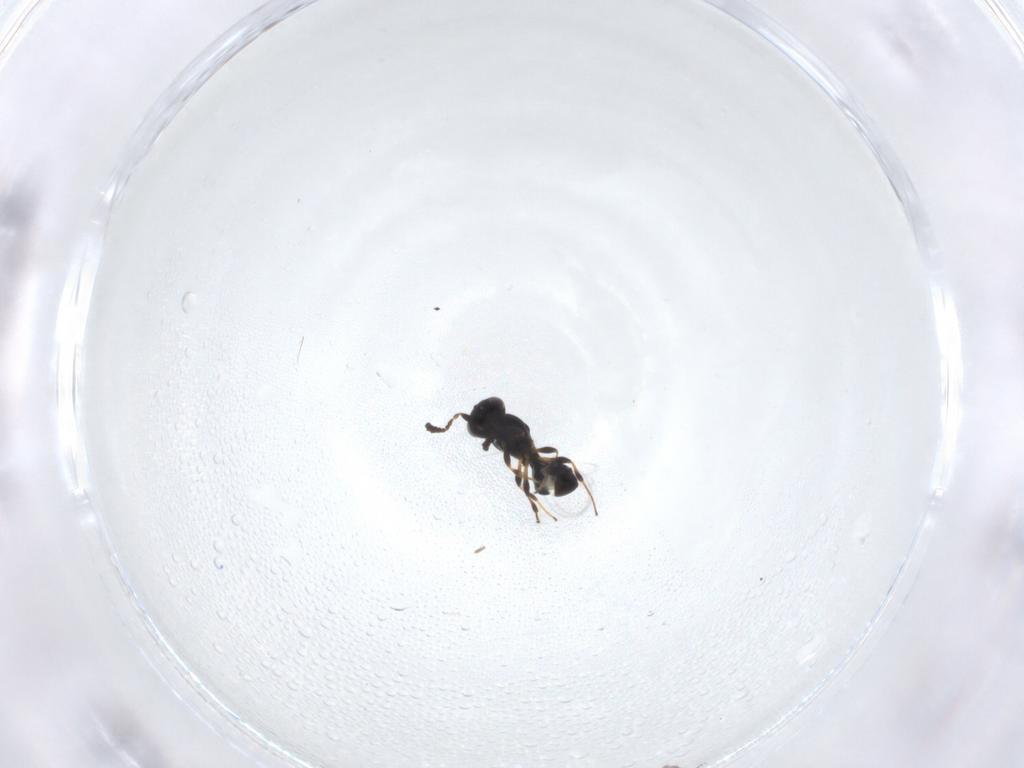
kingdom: Animalia
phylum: Arthropoda
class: Insecta
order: Hymenoptera
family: Platygastridae
